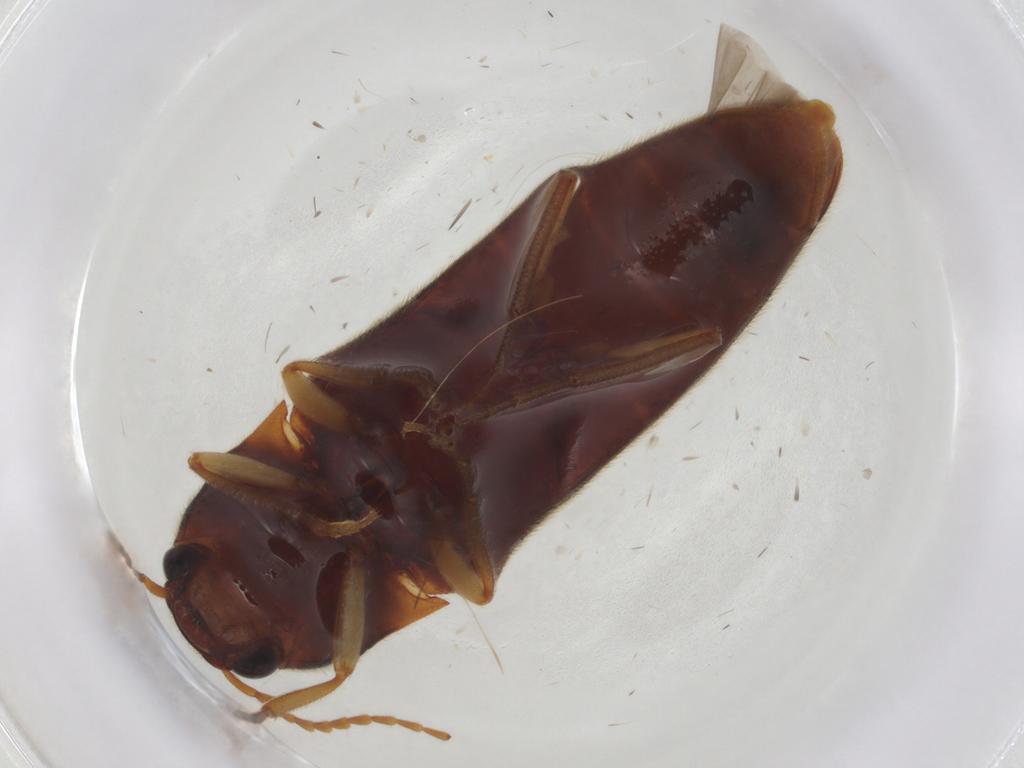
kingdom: Animalia
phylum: Arthropoda
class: Insecta
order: Coleoptera
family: Elateridae
